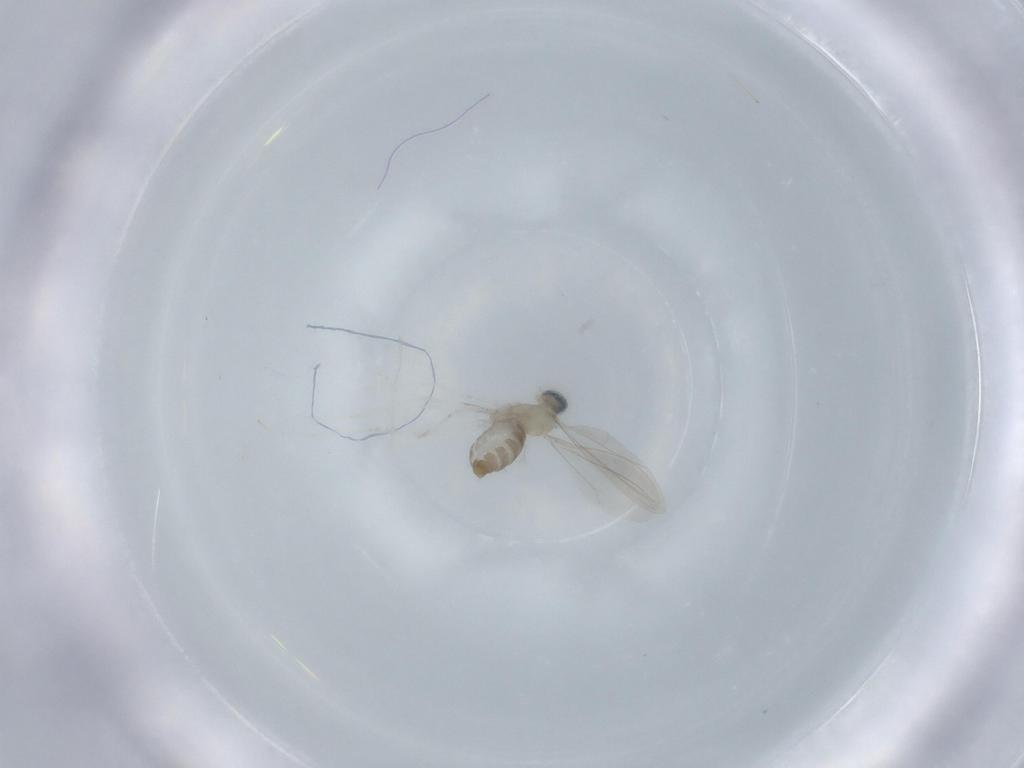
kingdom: Animalia
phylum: Arthropoda
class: Insecta
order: Diptera
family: Cecidomyiidae
